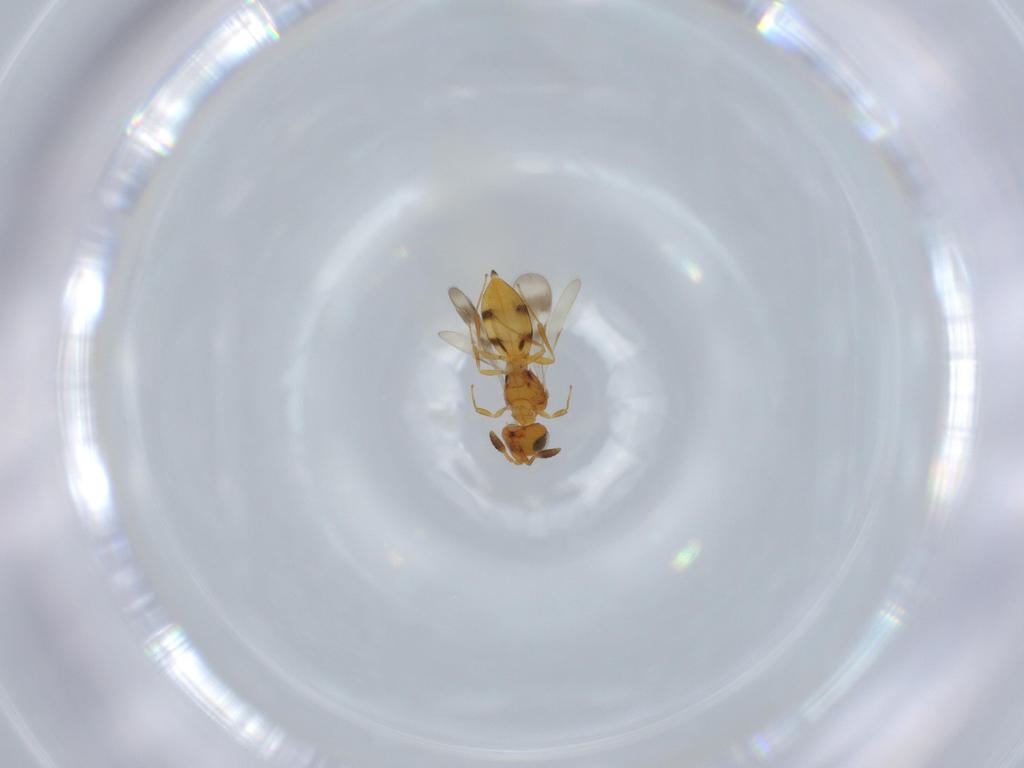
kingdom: Animalia
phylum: Arthropoda
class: Insecta
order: Hymenoptera
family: Scelionidae
